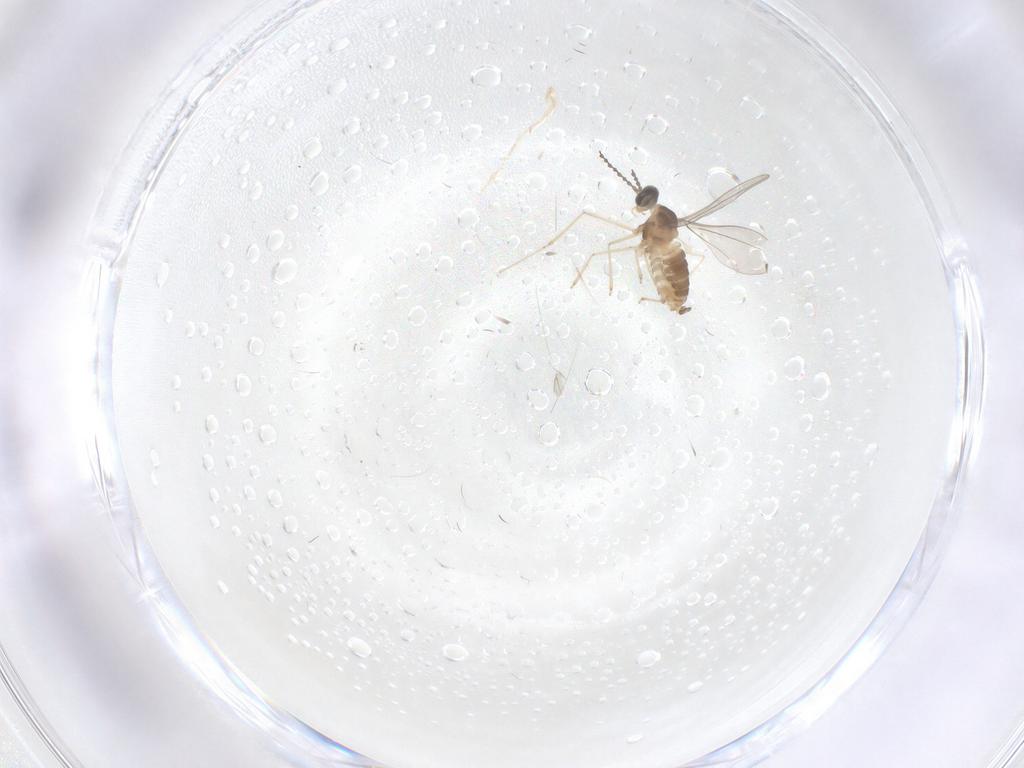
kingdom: Animalia
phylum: Arthropoda
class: Insecta
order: Diptera
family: Cecidomyiidae
